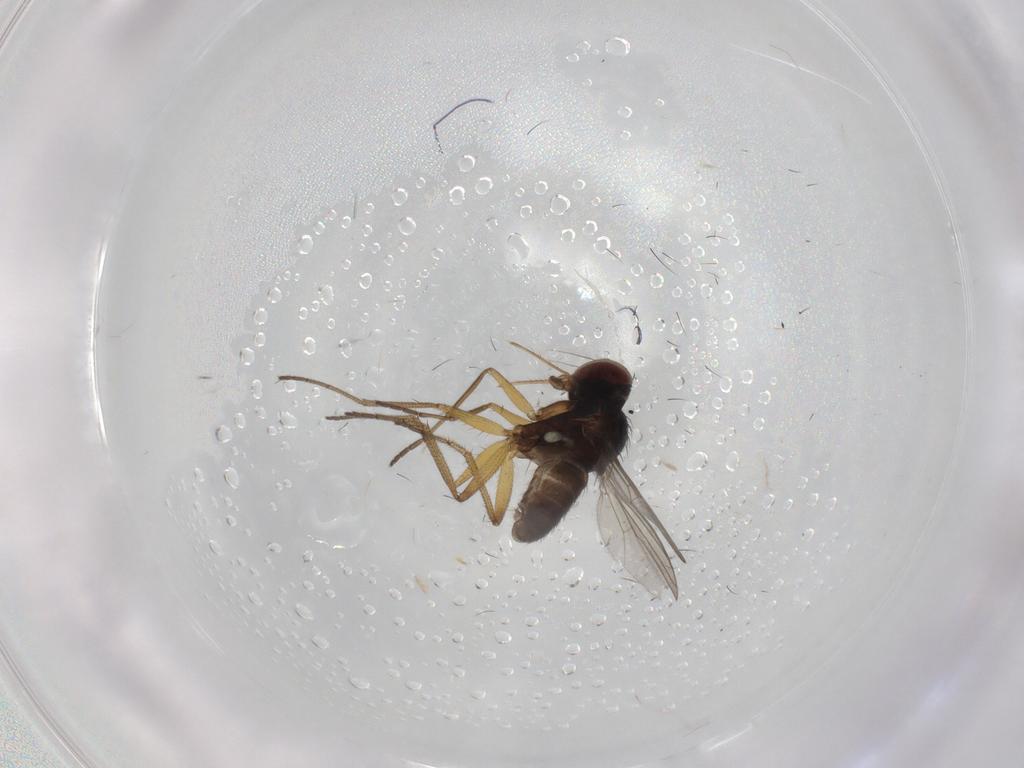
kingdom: Animalia
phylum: Arthropoda
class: Insecta
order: Diptera
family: Dolichopodidae
